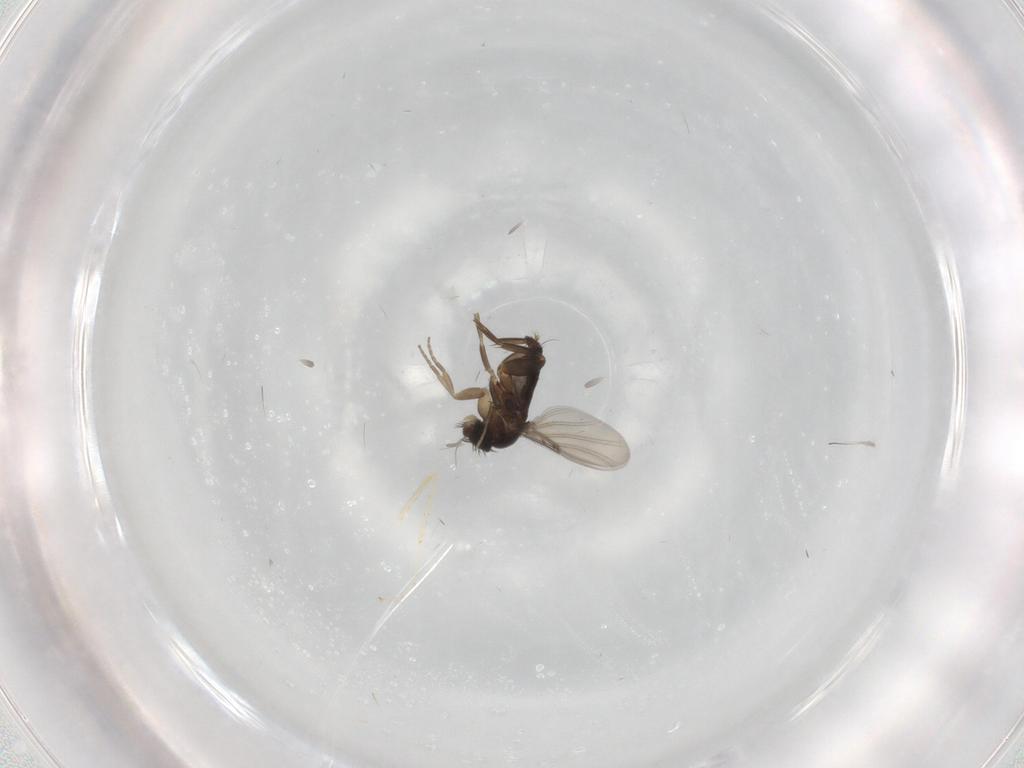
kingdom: Animalia
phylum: Arthropoda
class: Insecta
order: Diptera
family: Phoridae
